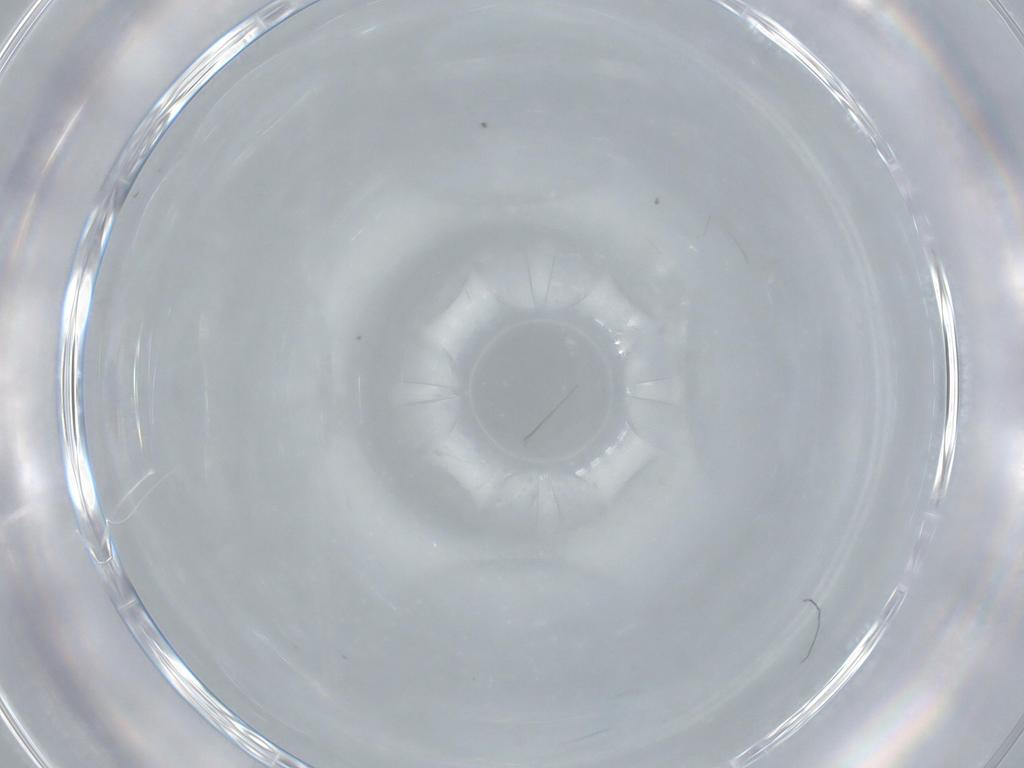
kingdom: Animalia
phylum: Arthropoda
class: Insecta
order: Diptera
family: Cecidomyiidae
